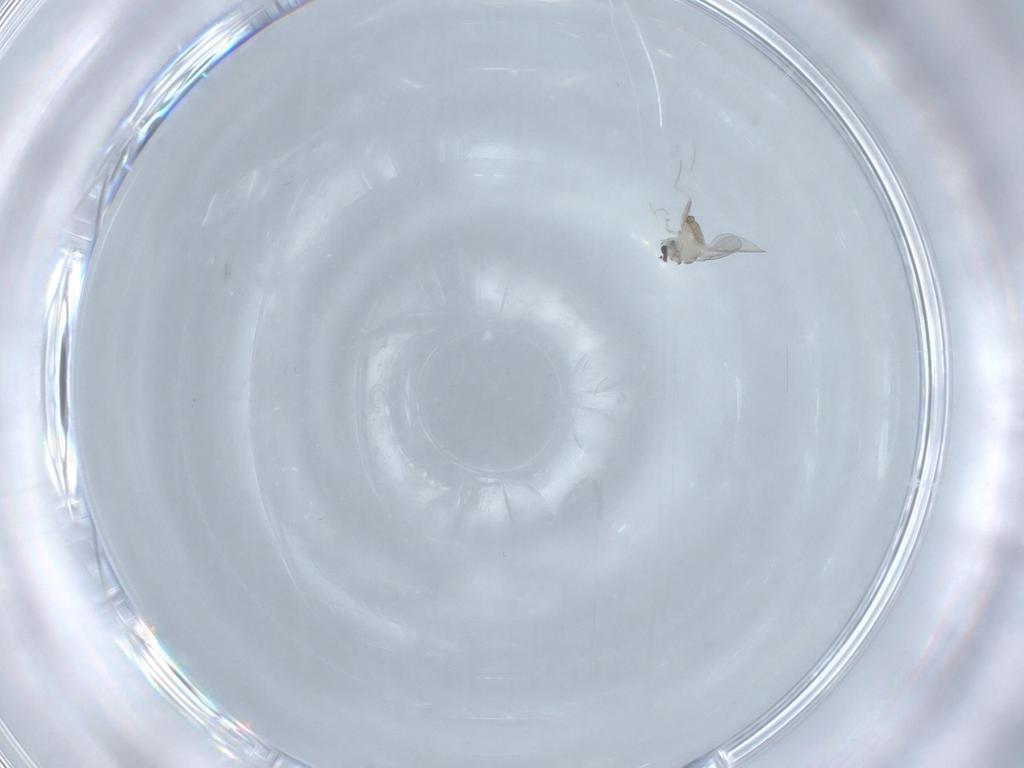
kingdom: Animalia
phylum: Arthropoda
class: Insecta
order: Diptera
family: Cecidomyiidae
